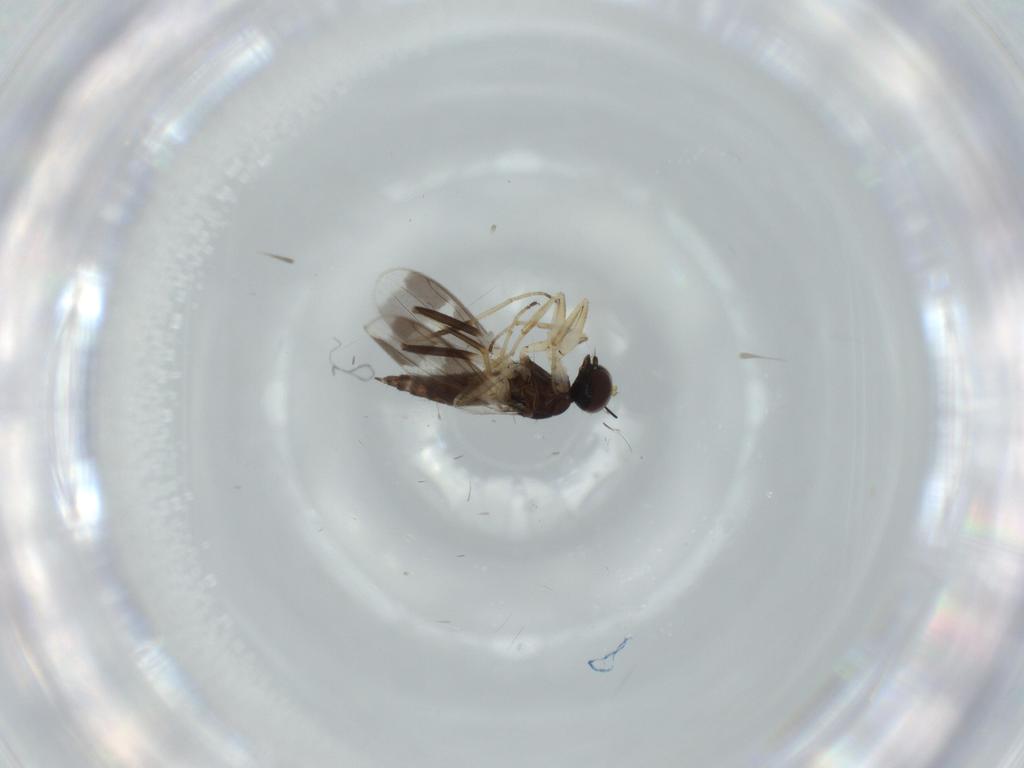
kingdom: Animalia
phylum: Arthropoda
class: Insecta
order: Diptera
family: Hybotidae
